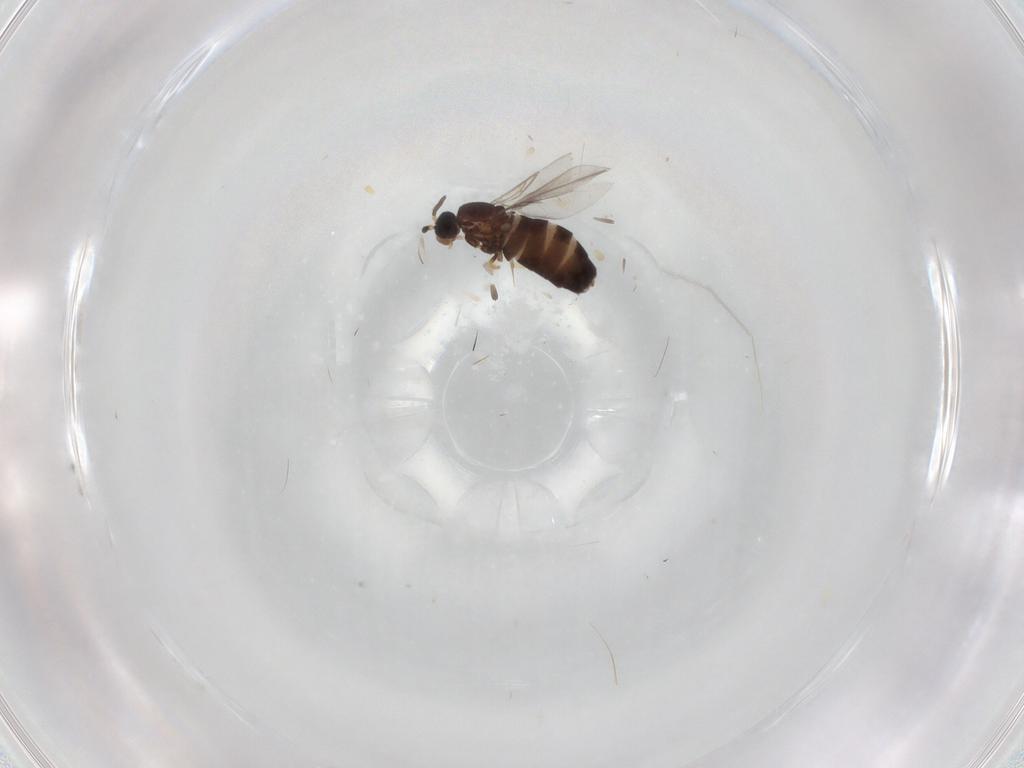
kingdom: Animalia
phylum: Arthropoda
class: Insecta
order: Diptera
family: Scatopsidae
